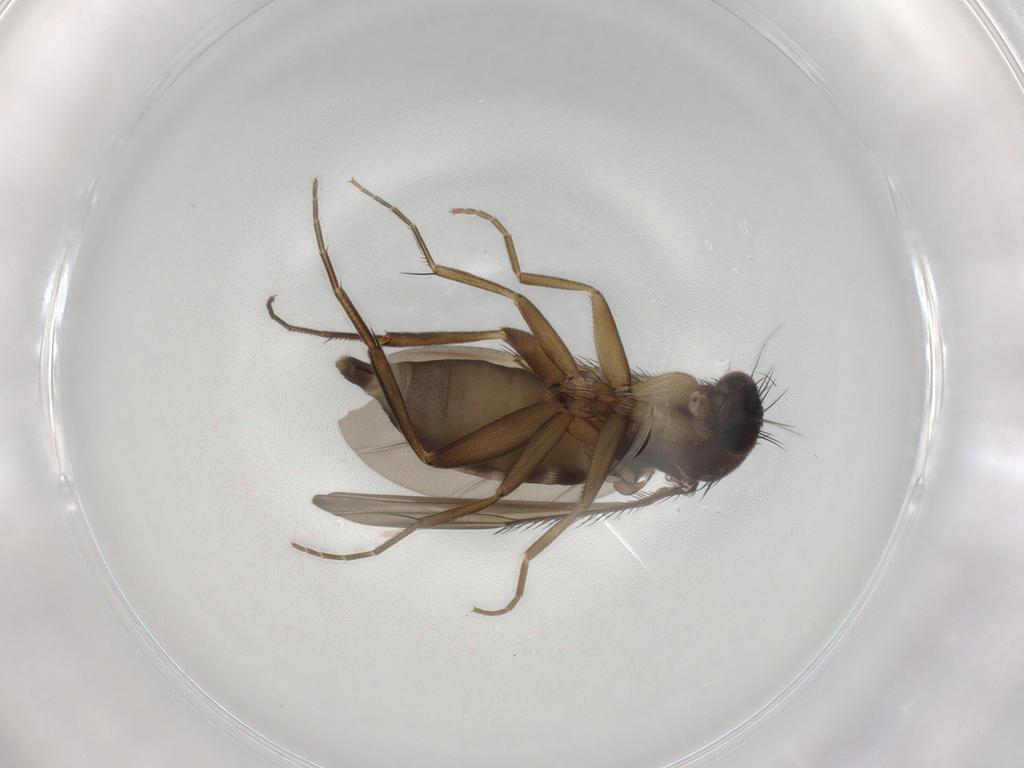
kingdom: Animalia
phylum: Arthropoda
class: Insecta
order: Diptera
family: Phoridae
